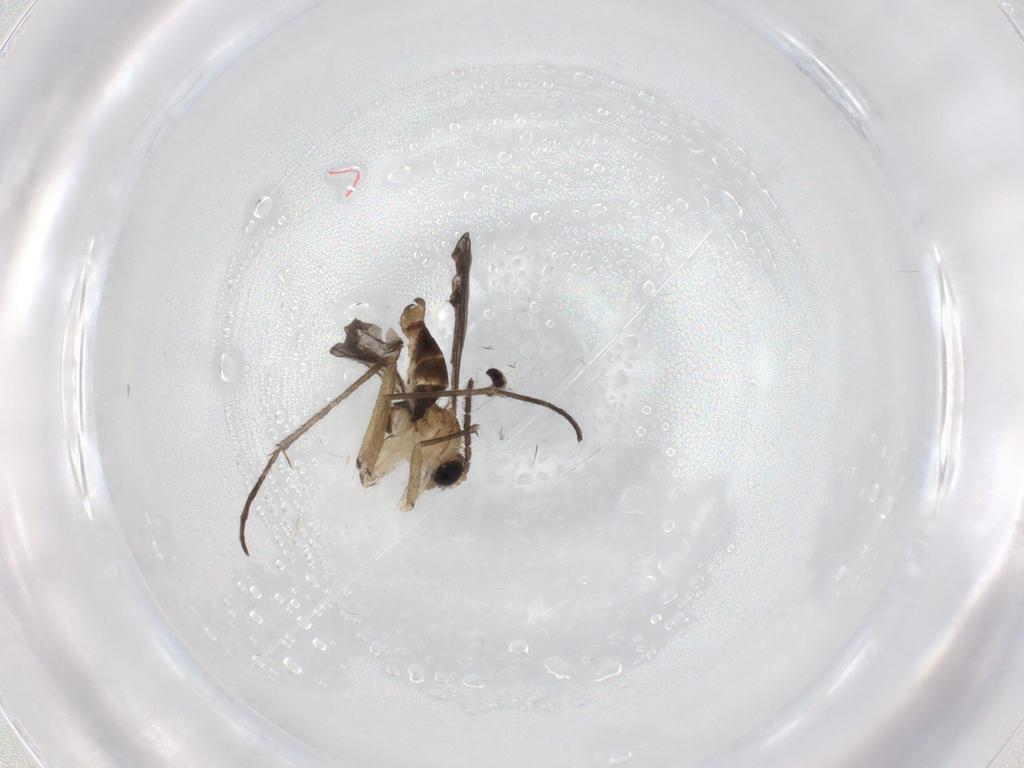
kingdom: Animalia
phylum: Arthropoda
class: Insecta
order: Diptera
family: Sciaridae
